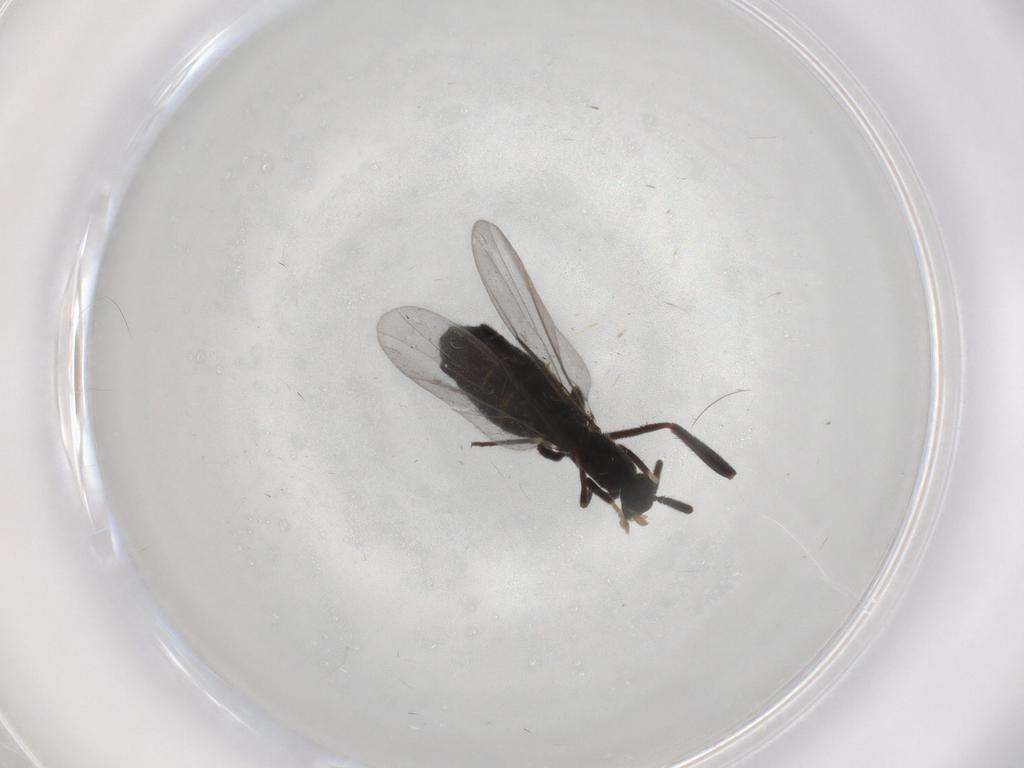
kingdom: Animalia
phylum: Arthropoda
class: Insecta
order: Diptera
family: Scatopsidae
